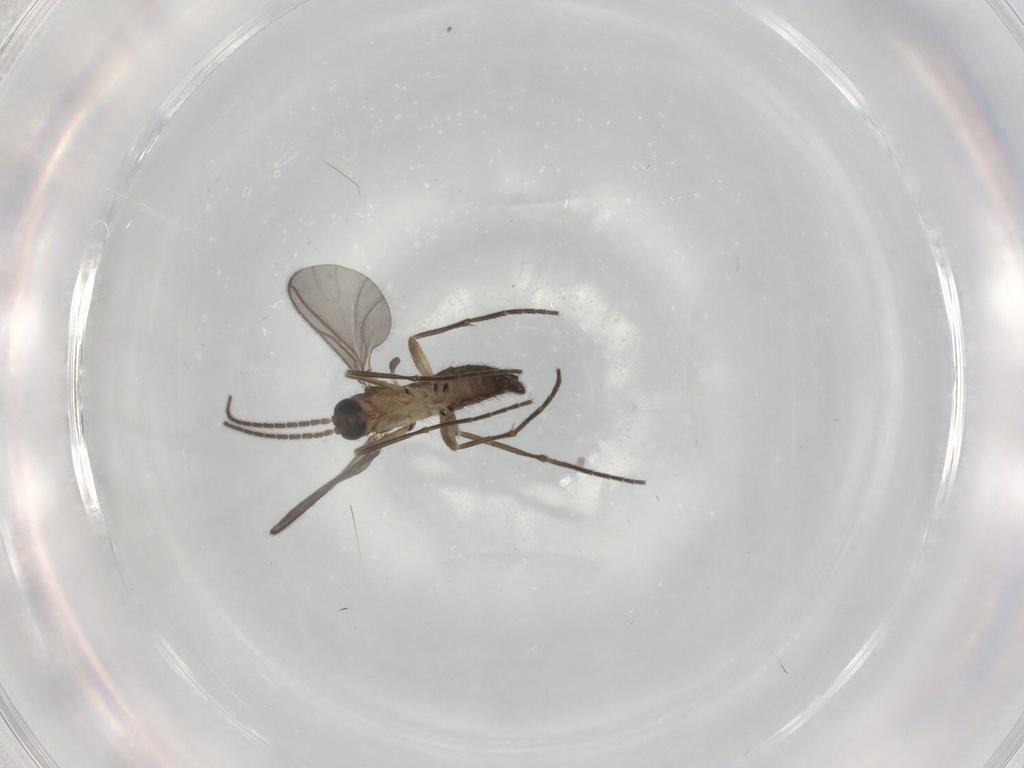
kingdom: Animalia
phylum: Arthropoda
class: Insecta
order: Diptera
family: Sciaridae
